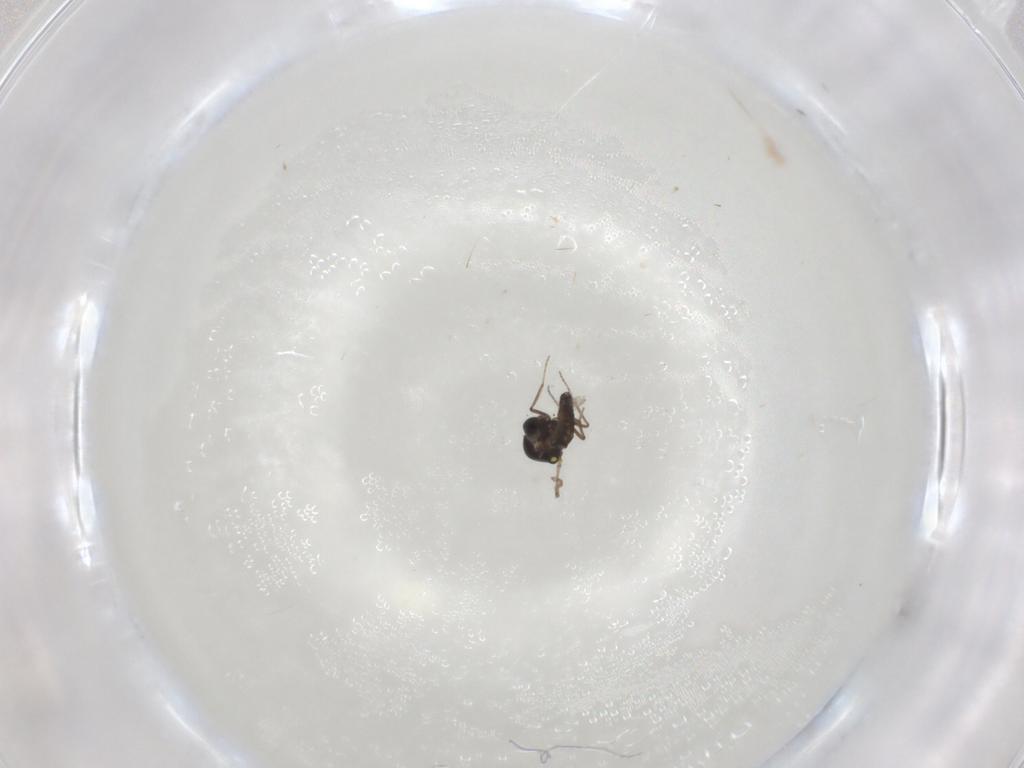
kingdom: Animalia
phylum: Arthropoda
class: Insecta
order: Diptera
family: Ceratopogonidae
